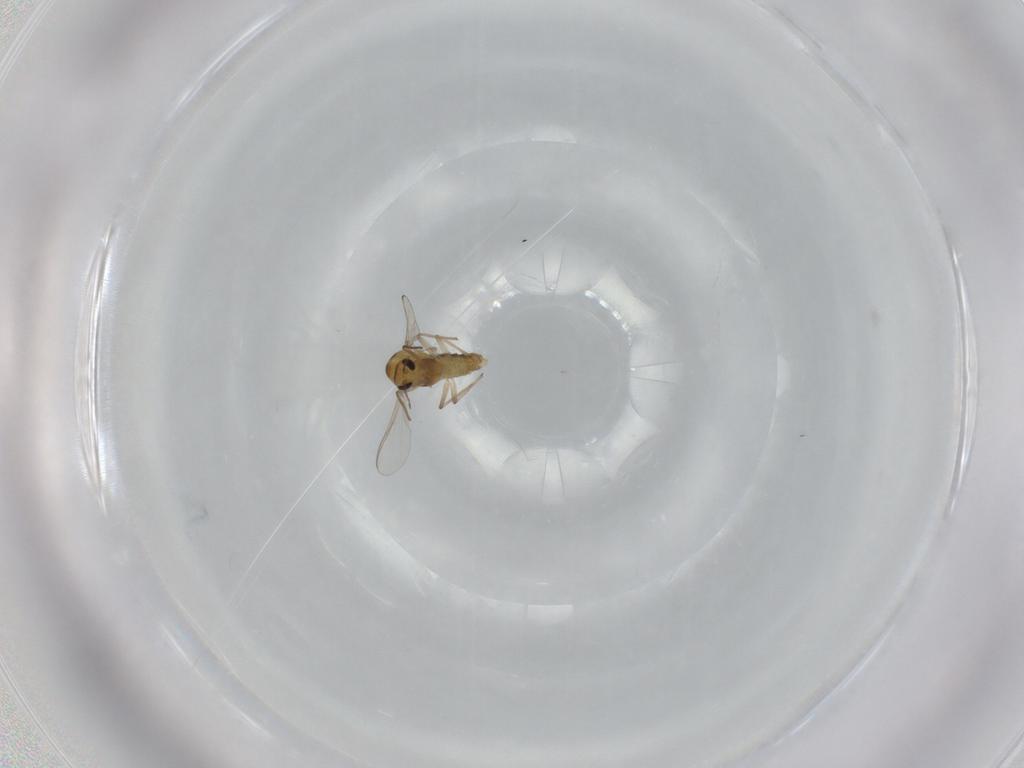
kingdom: Animalia
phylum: Arthropoda
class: Insecta
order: Diptera
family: Chironomidae
